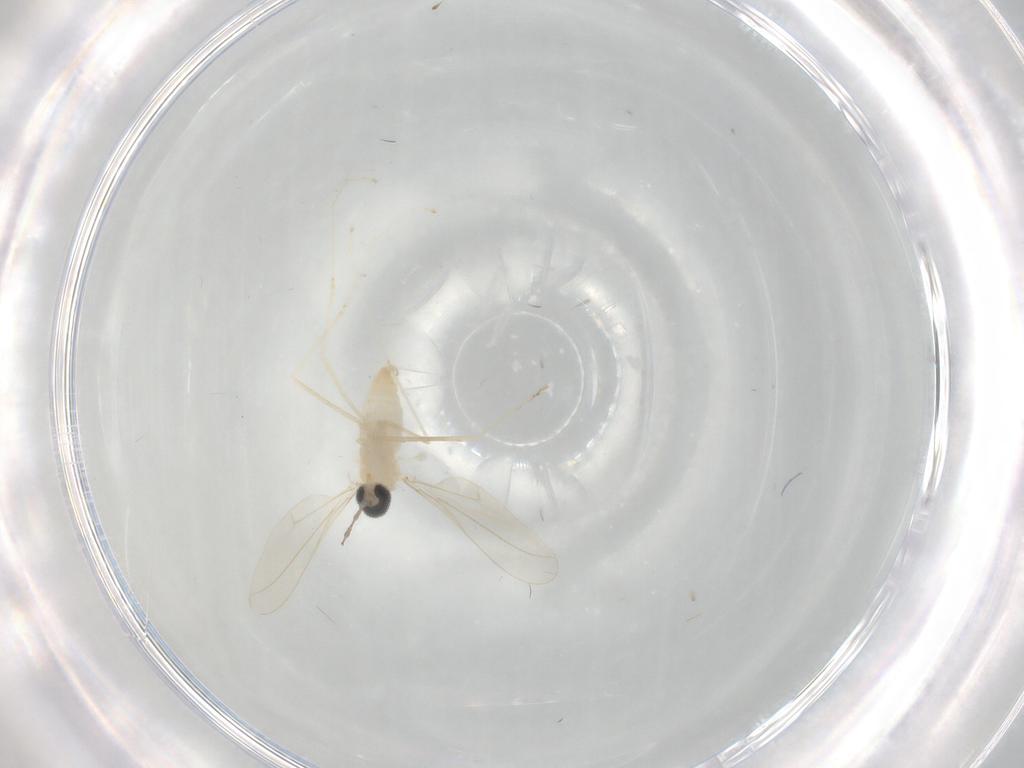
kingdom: Animalia
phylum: Arthropoda
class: Insecta
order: Diptera
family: Cecidomyiidae
